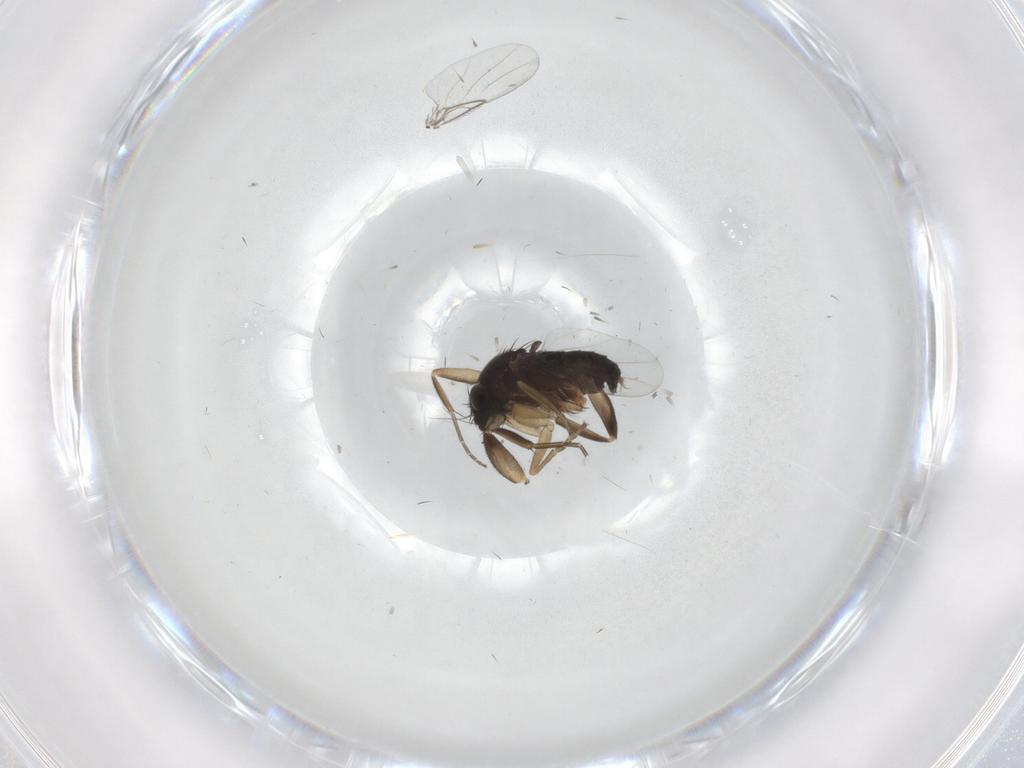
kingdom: Animalia
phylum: Arthropoda
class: Insecta
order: Diptera
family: Phoridae
